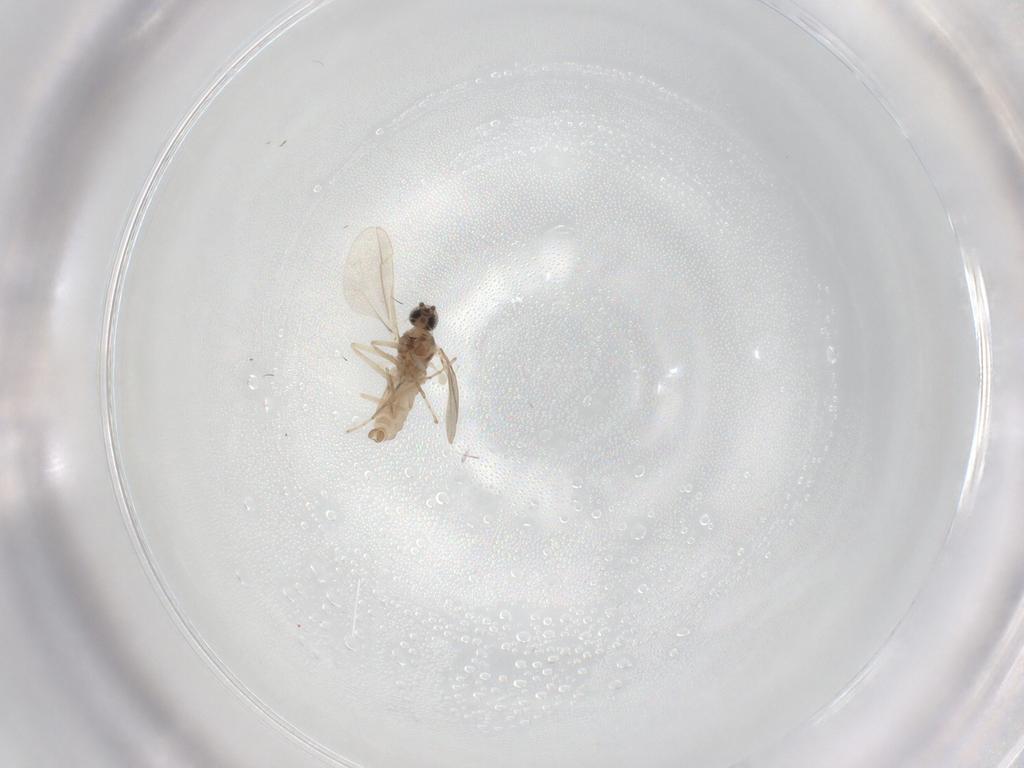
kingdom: Animalia
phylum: Arthropoda
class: Insecta
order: Diptera
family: Cecidomyiidae
